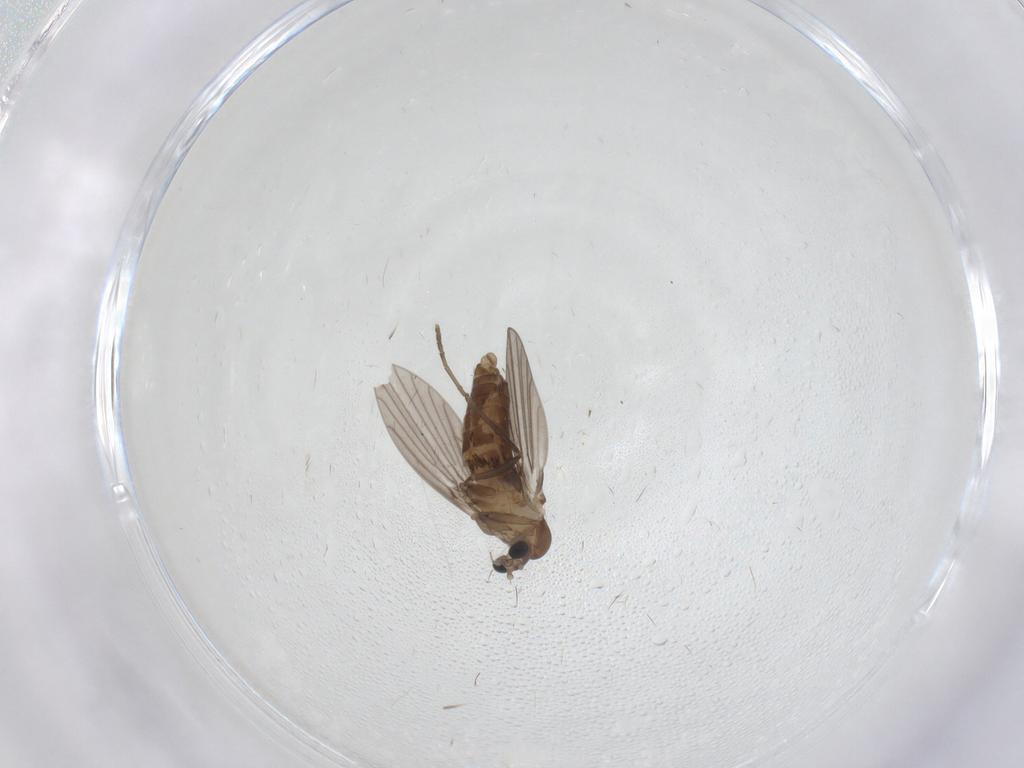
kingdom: Animalia
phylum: Arthropoda
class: Insecta
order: Diptera
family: Psychodidae
